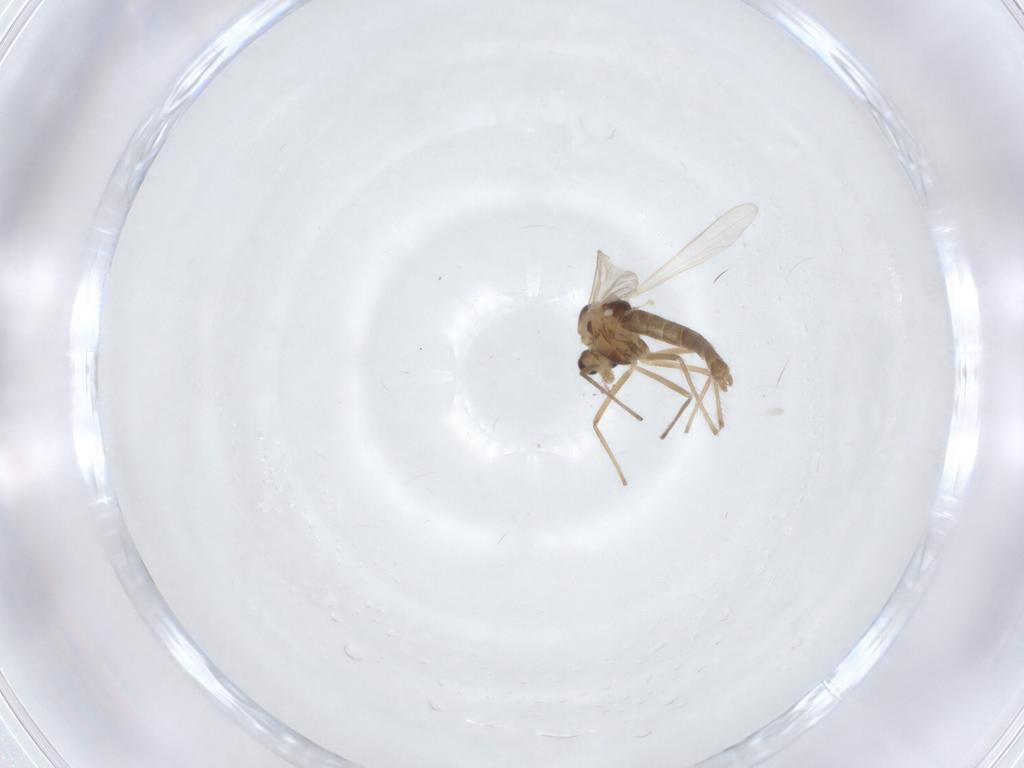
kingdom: Animalia
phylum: Arthropoda
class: Insecta
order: Diptera
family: Chironomidae
